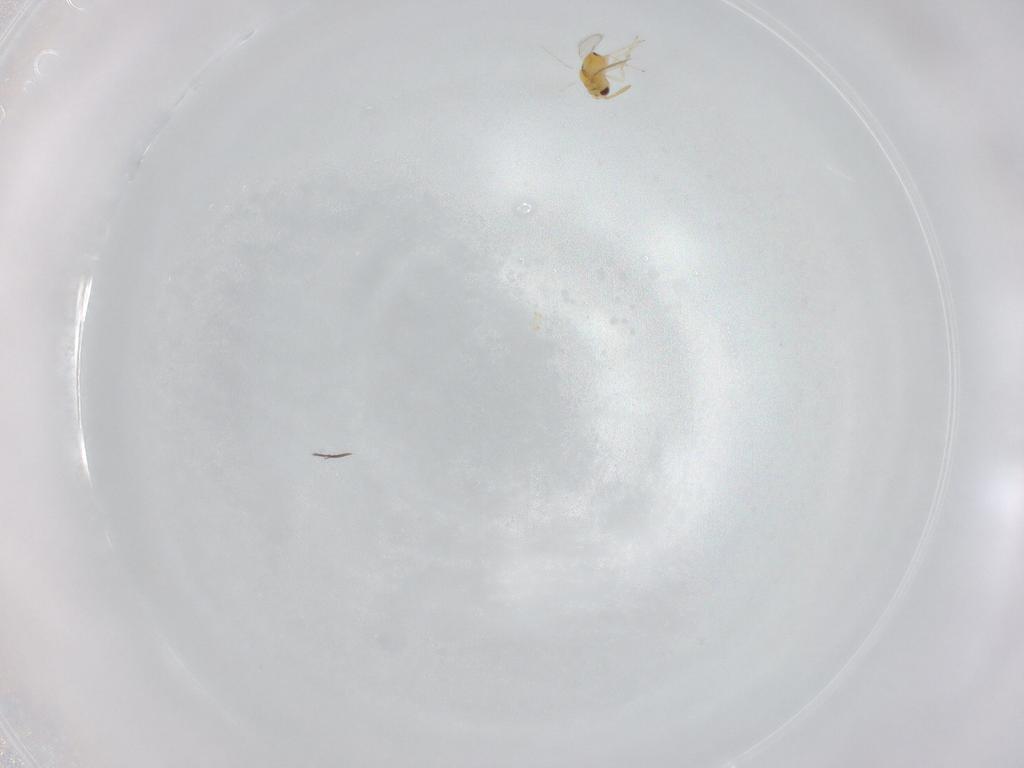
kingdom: Animalia
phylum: Arthropoda
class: Insecta
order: Hymenoptera
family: Aphelinidae
